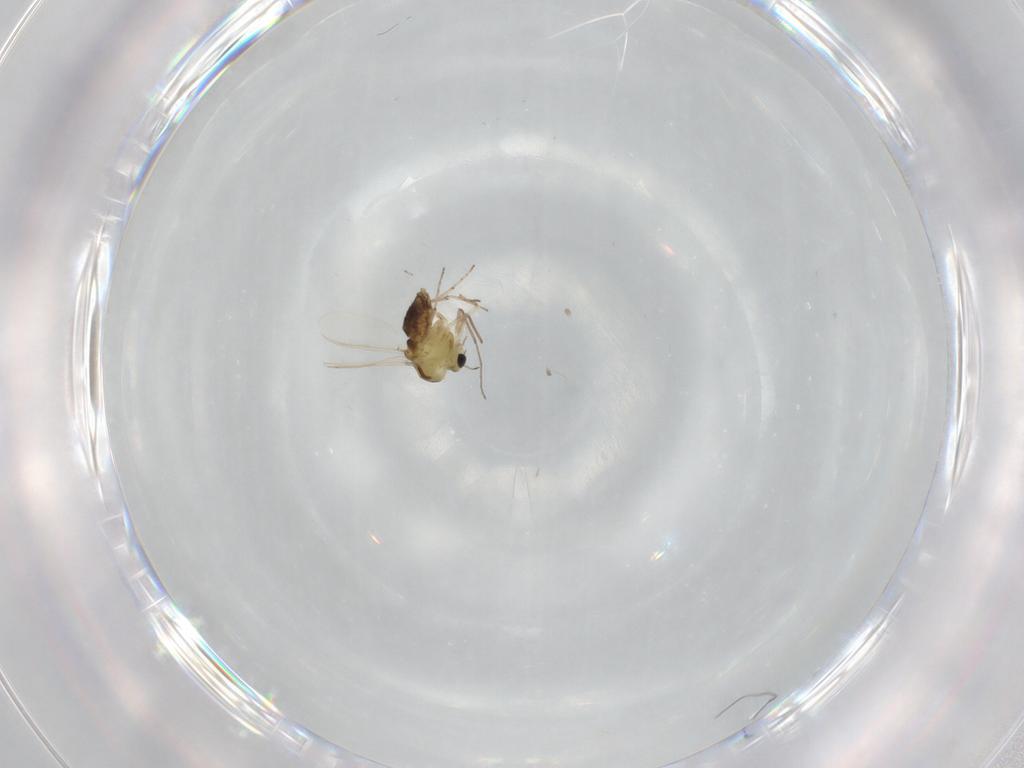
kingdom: Animalia
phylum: Arthropoda
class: Insecta
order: Diptera
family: Chironomidae
